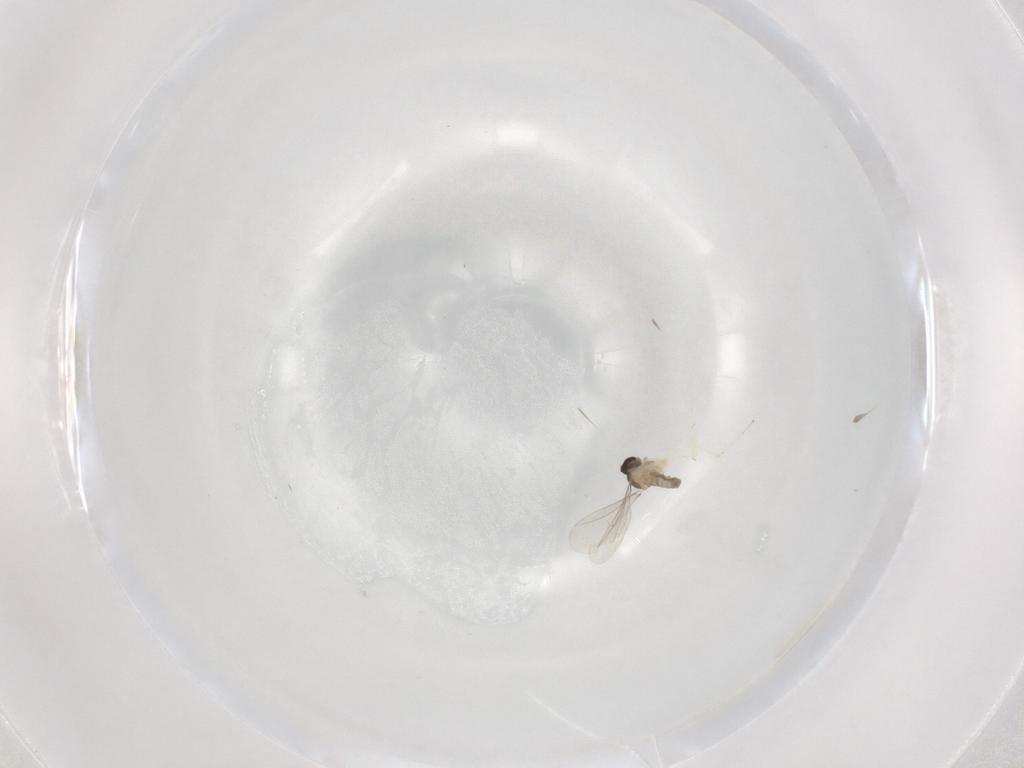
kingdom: Animalia
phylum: Arthropoda
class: Insecta
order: Diptera
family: Cecidomyiidae
